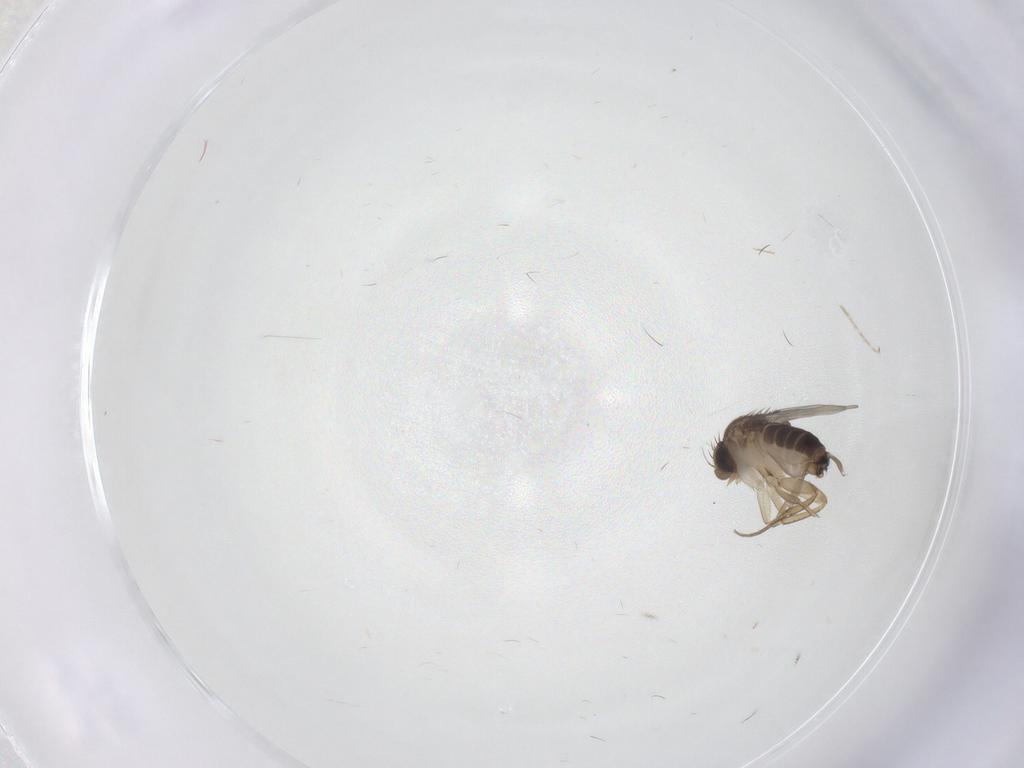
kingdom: Animalia
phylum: Arthropoda
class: Insecta
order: Diptera
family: Phoridae
